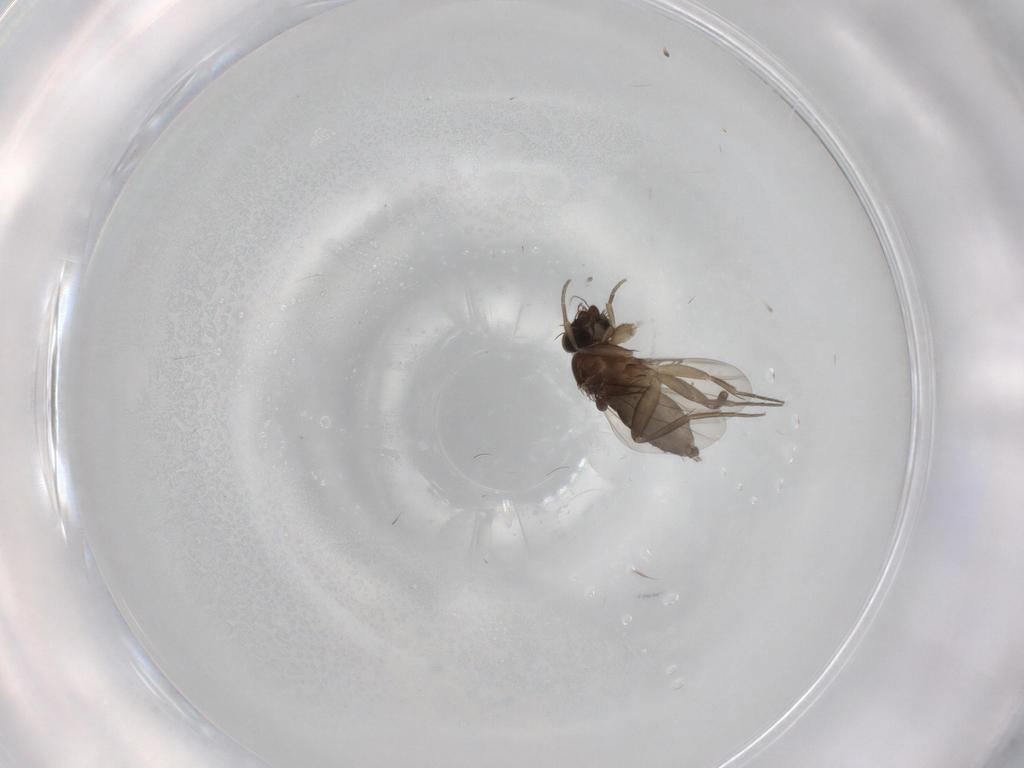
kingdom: Animalia
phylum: Arthropoda
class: Insecta
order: Diptera
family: Phoridae
